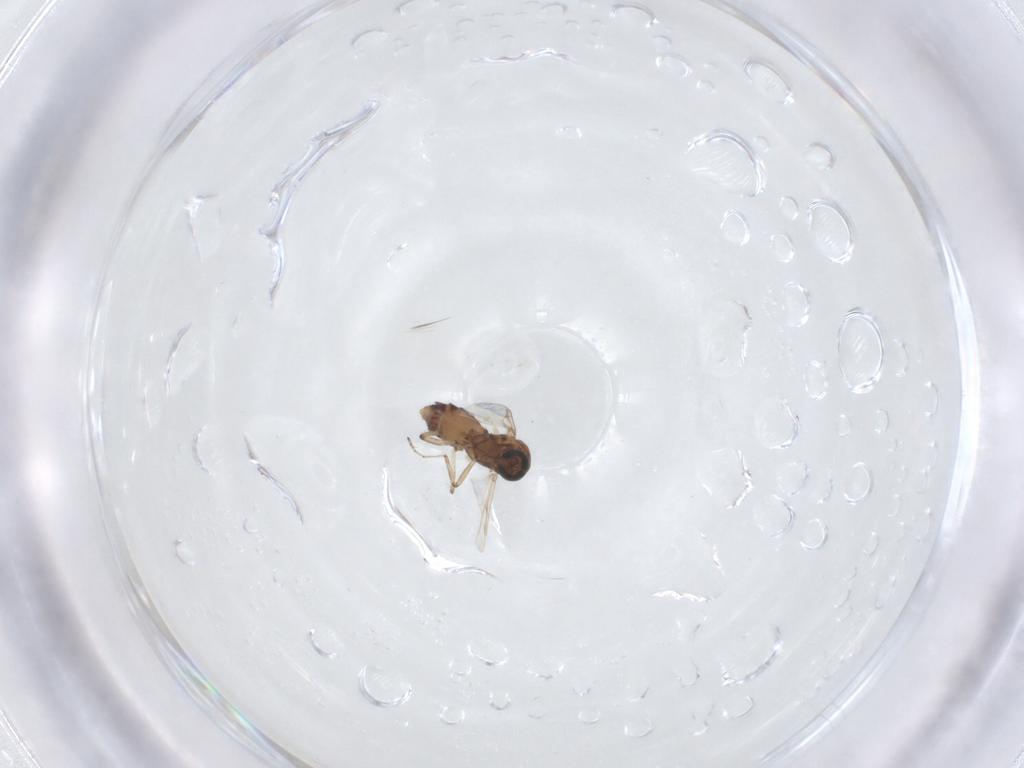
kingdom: Animalia
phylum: Arthropoda
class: Insecta
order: Diptera
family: Ceratopogonidae
